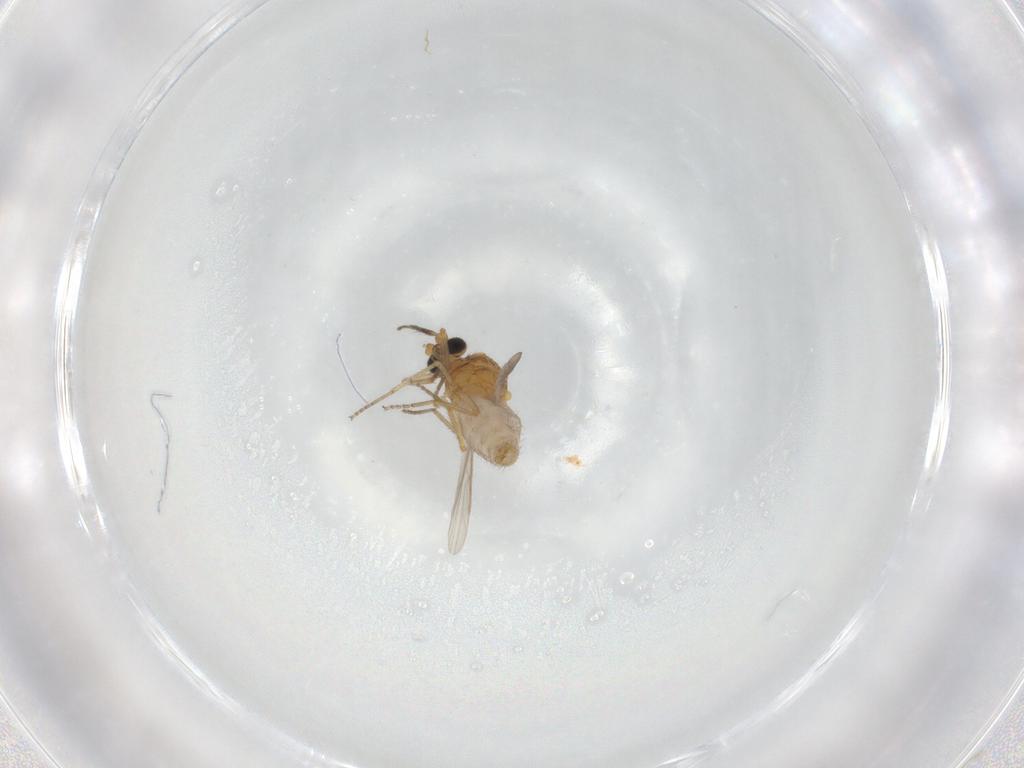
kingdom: Animalia
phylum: Arthropoda
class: Insecta
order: Diptera
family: Ceratopogonidae
